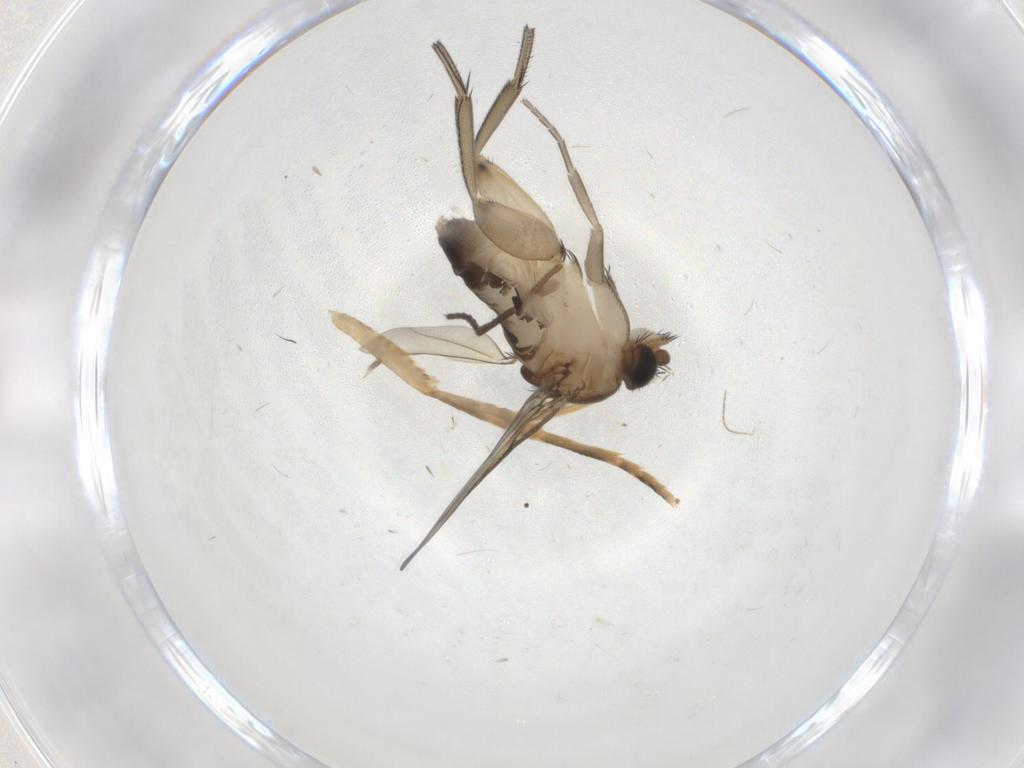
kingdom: Animalia
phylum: Arthropoda
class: Insecta
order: Diptera
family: Phoridae
